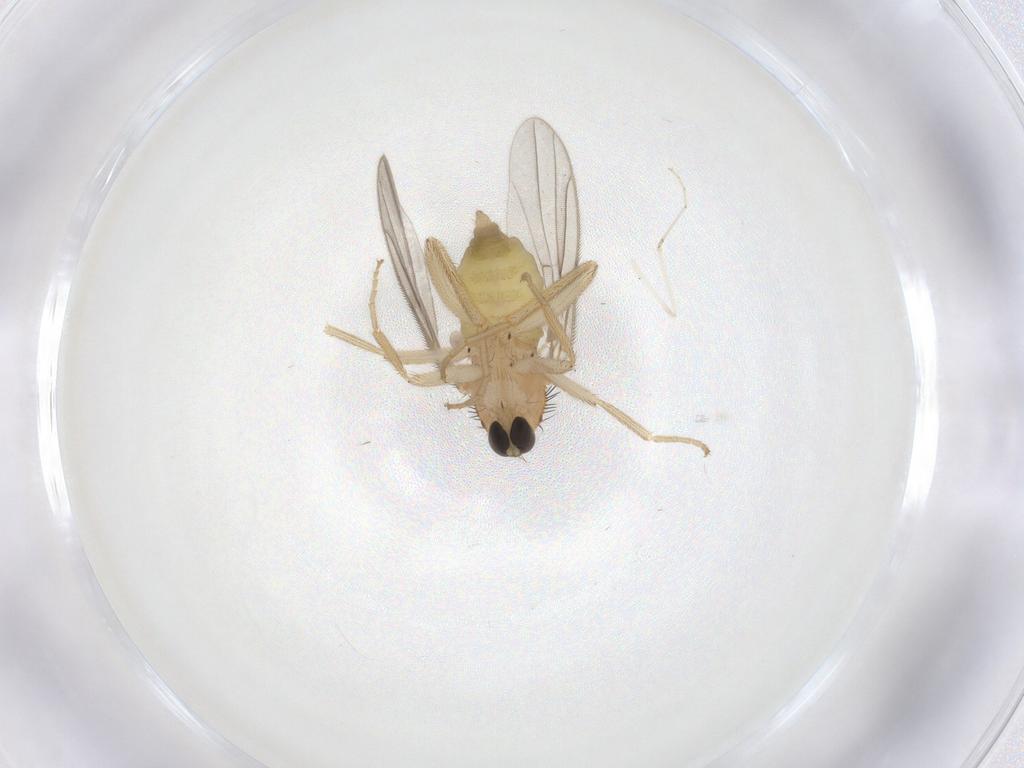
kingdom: Animalia
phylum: Arthropoda
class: Insecta
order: Diptera
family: Hybotidae
